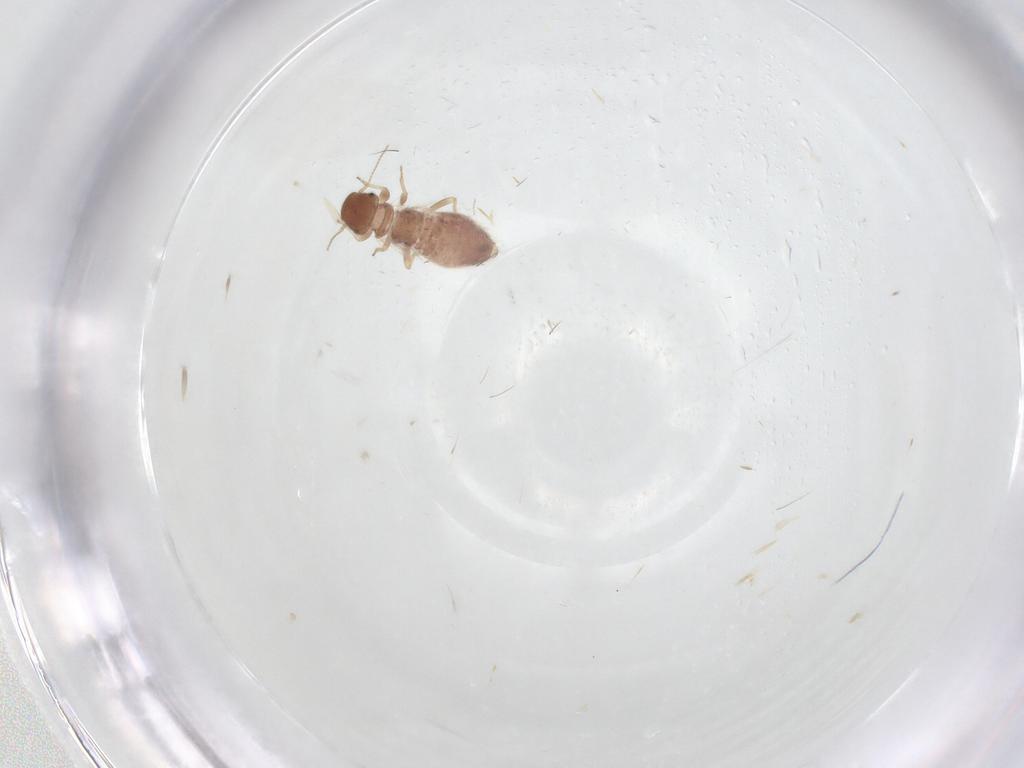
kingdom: Animalia
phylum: Arthropoda
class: Insecta
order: Psocodea
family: Archipsocidae
